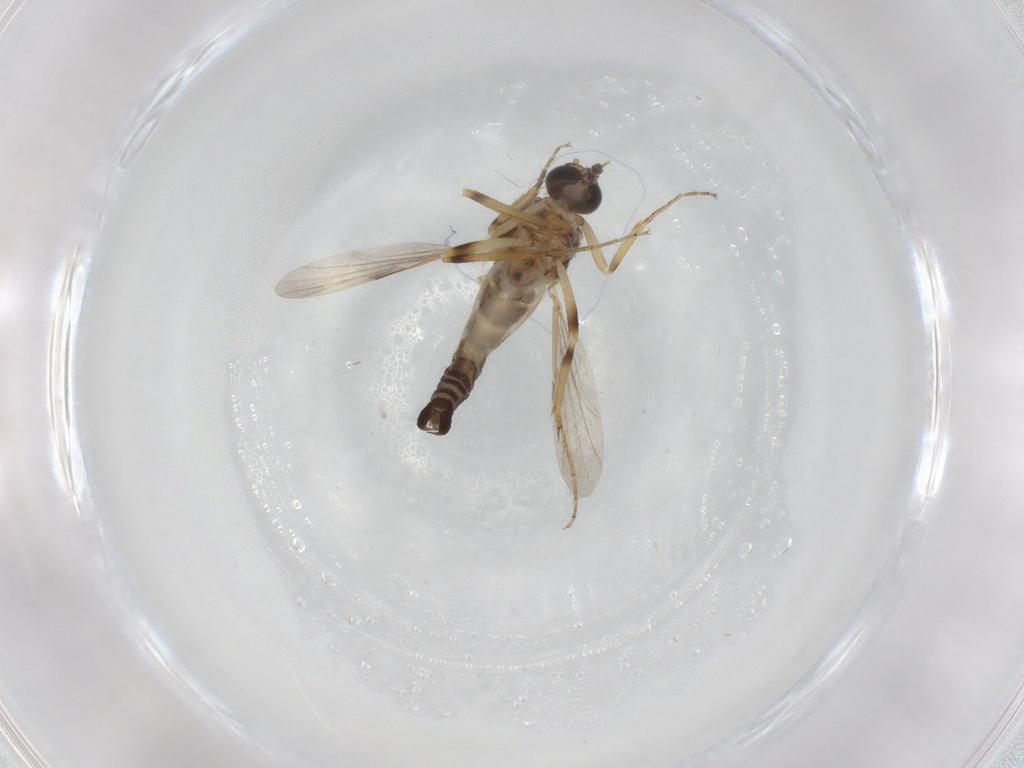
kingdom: Animalia
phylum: Arthropoda
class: Insecta
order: Diptera
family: Ceratopogonidae
